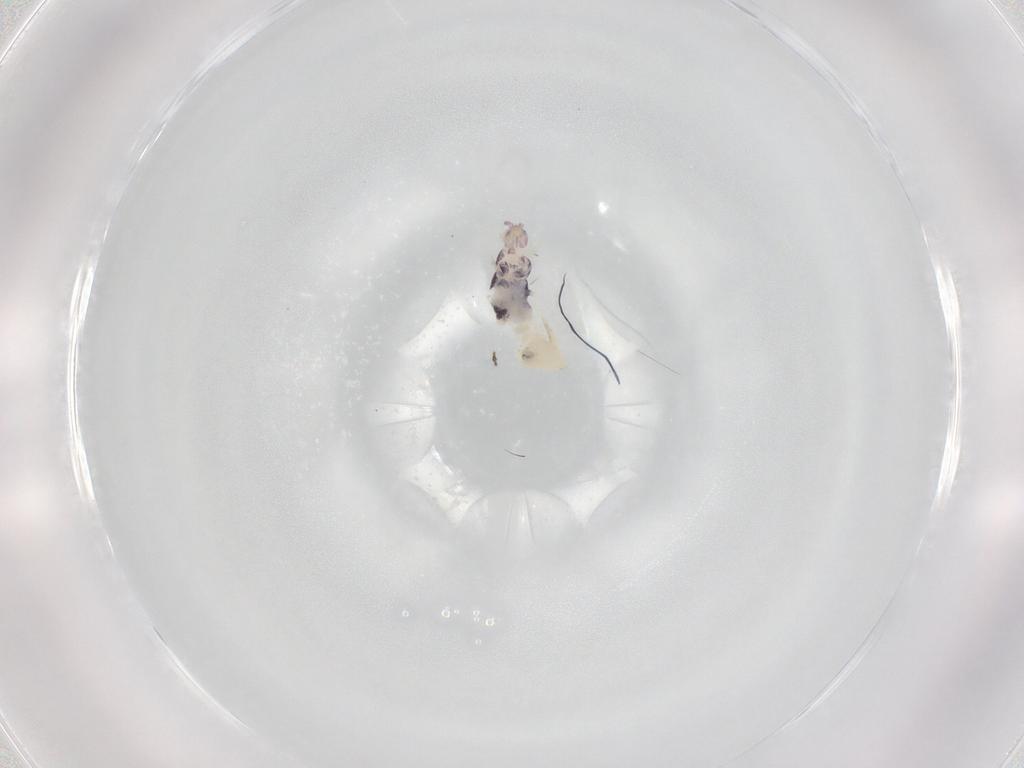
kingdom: Animalia
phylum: Arthropoda
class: Collembola
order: Entomobryomorpha
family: Entomobryidae
